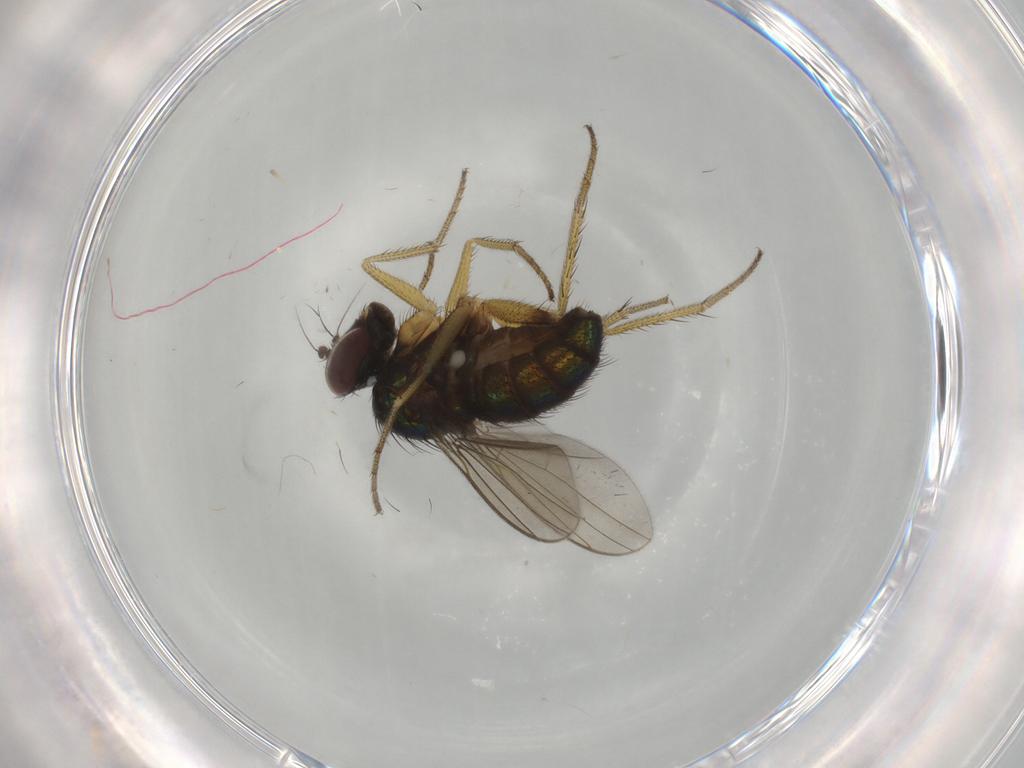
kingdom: Animalia
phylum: Arthropoda
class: Insecta
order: Diptera
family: Dolichopodidae
